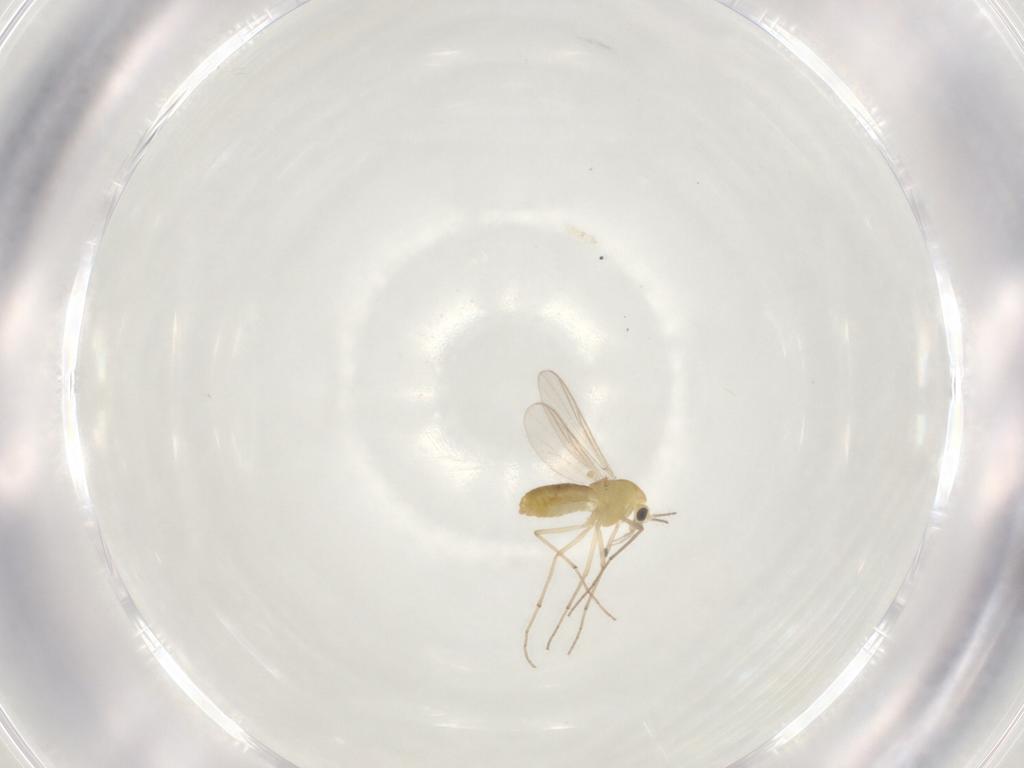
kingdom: Animalia
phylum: Arthropoda
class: Insecta
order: Diptera
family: Chironomidae
